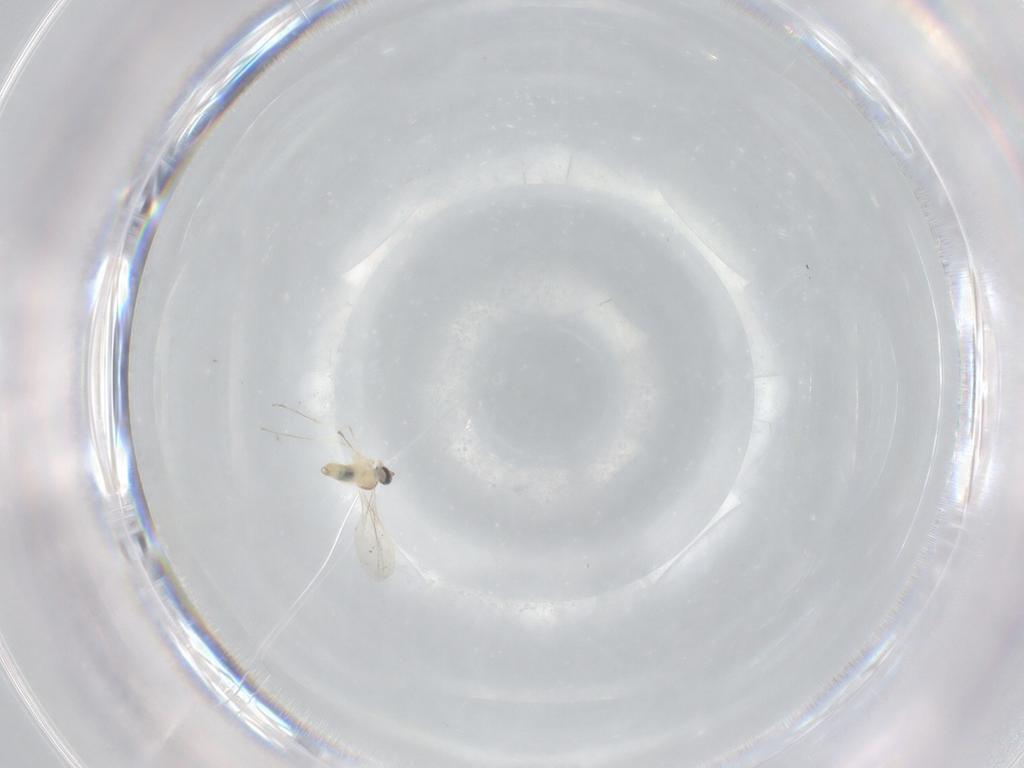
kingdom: Animalia
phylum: Arthropoda
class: Insecta
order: Diptera
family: Cecidomyiidae
